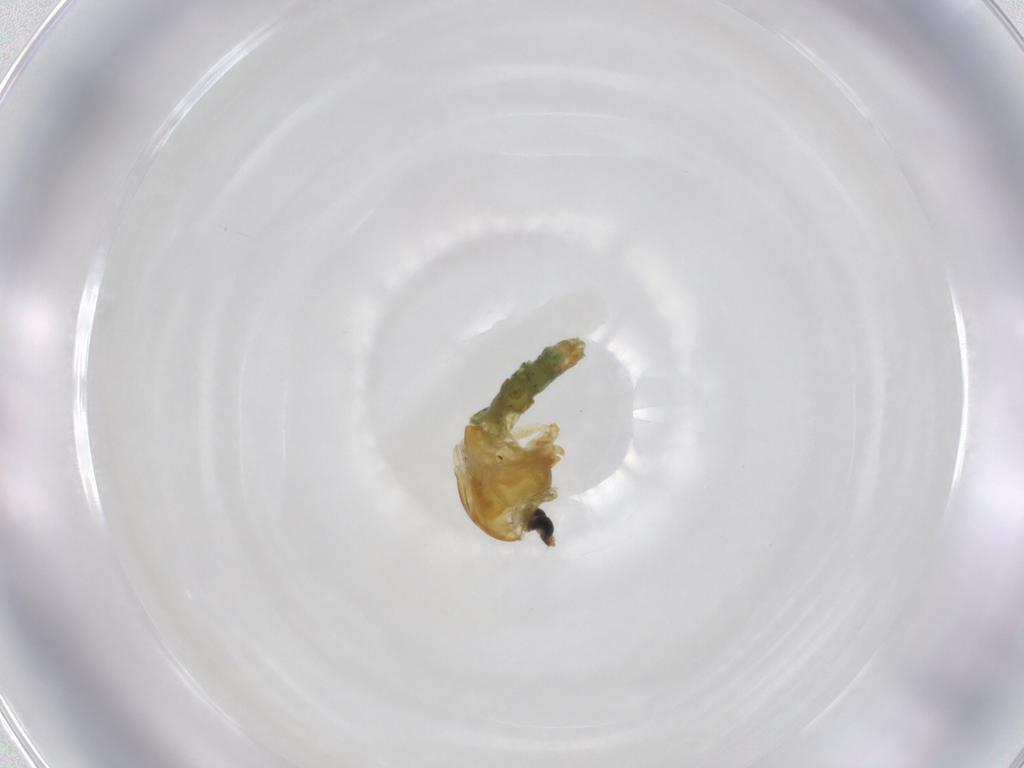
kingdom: Animalia
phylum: Arthropoda
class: Insecta
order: Diptera
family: Chironomidae
